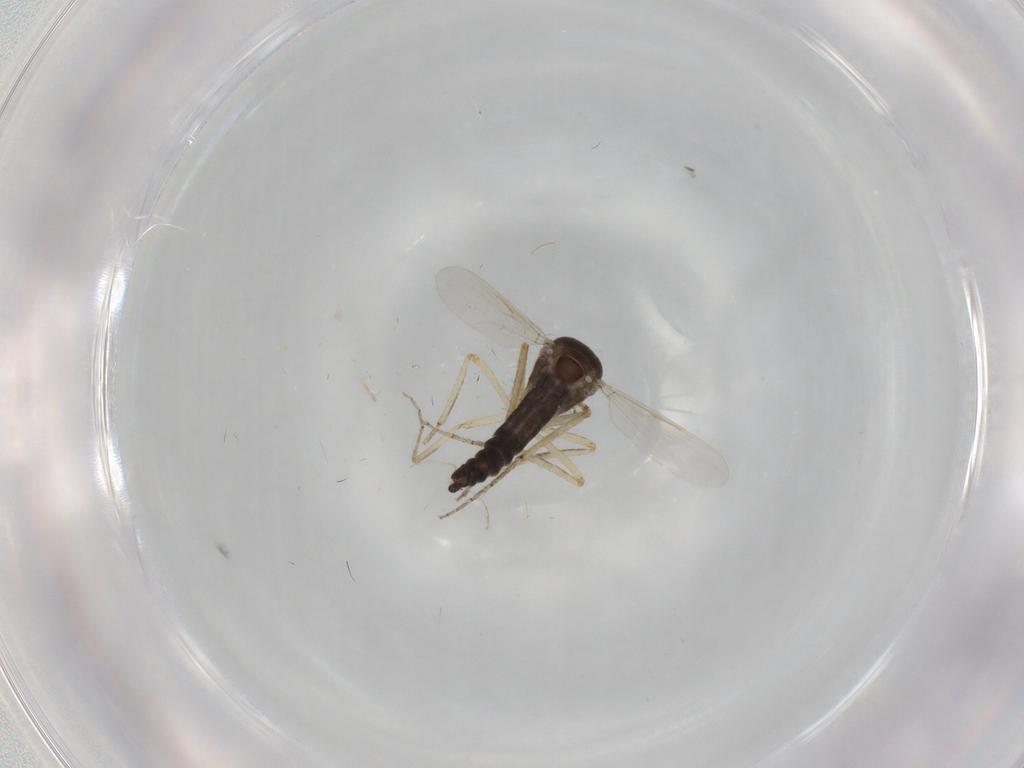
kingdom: Animalia
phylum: Arthropoda
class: Insecta
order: Diptera
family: Ceratopogonidae
